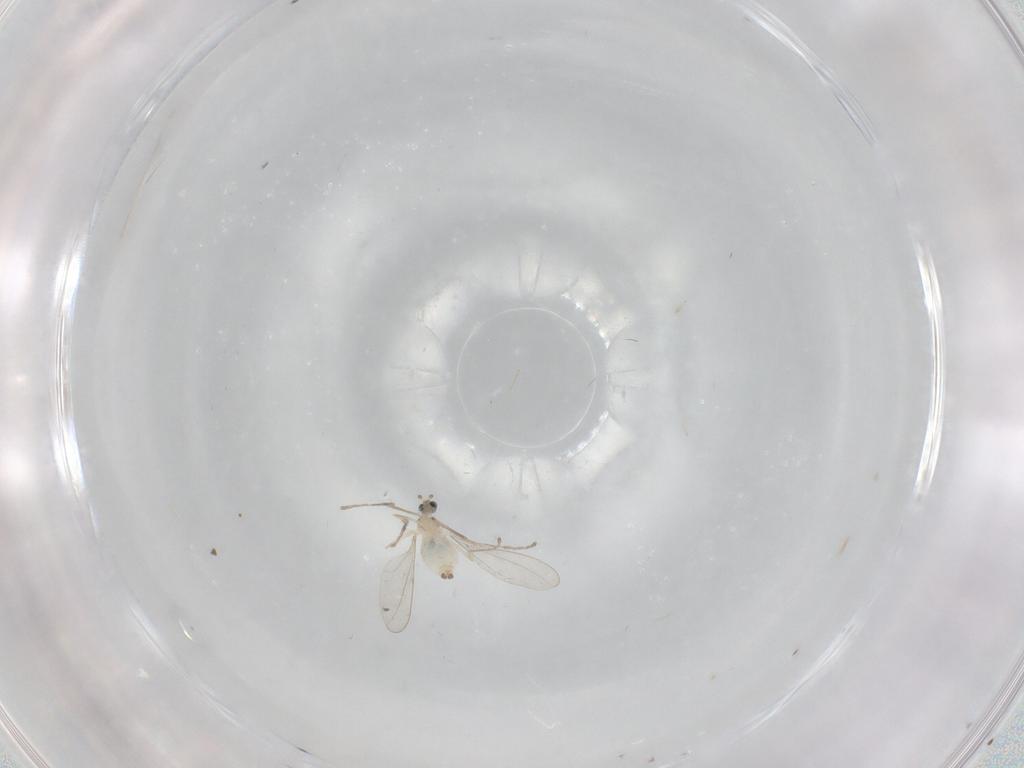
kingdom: Animalia
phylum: Arthropoda
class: Insecta
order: Diptera
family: Cecidomyiidae
